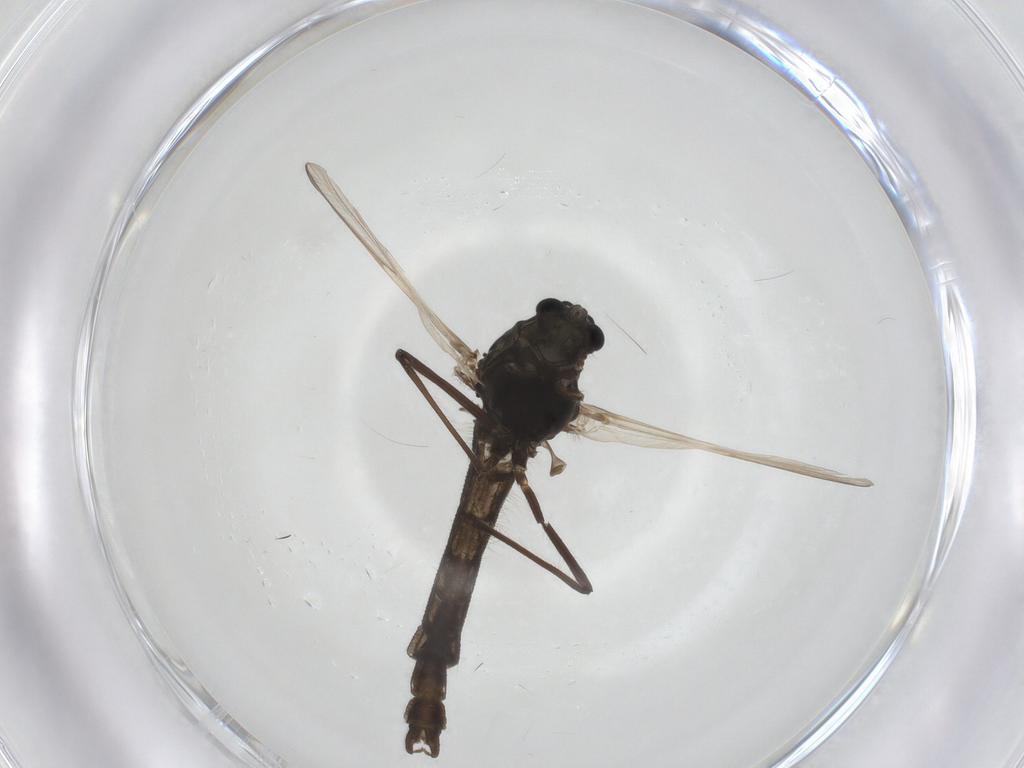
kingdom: Animalia
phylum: Arthropoda
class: Insecta
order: Diptera
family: Chironomidae
